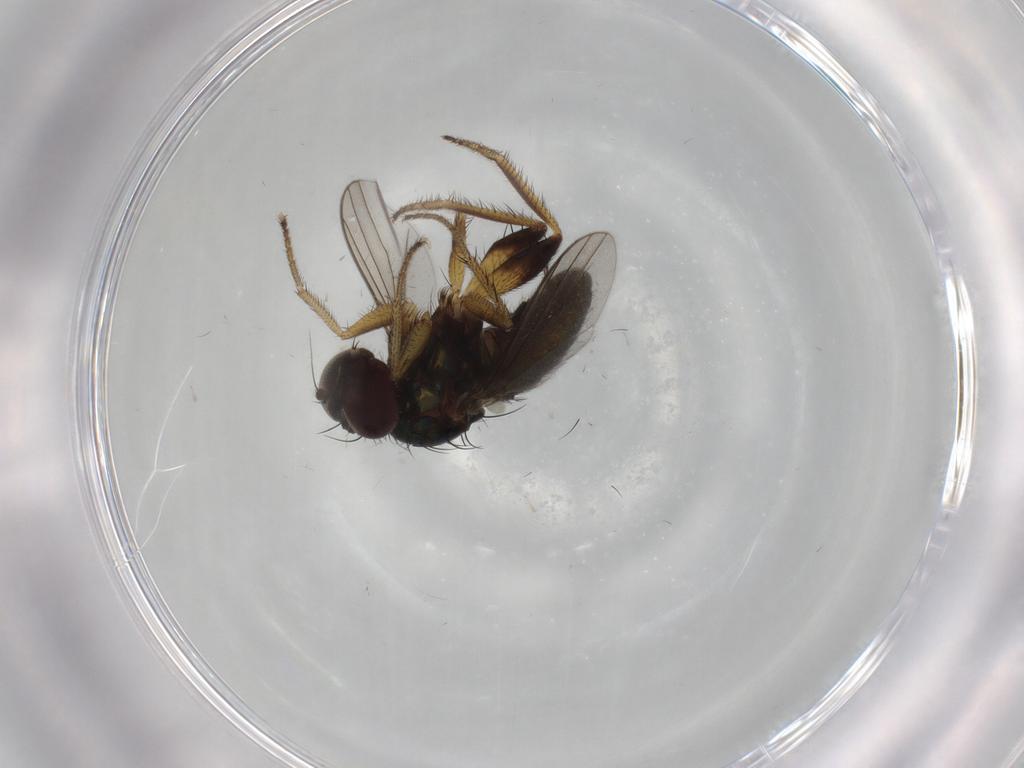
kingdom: Animalia
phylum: Arthropoda
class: Insecta
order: Diptera
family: Dolichopodidae
